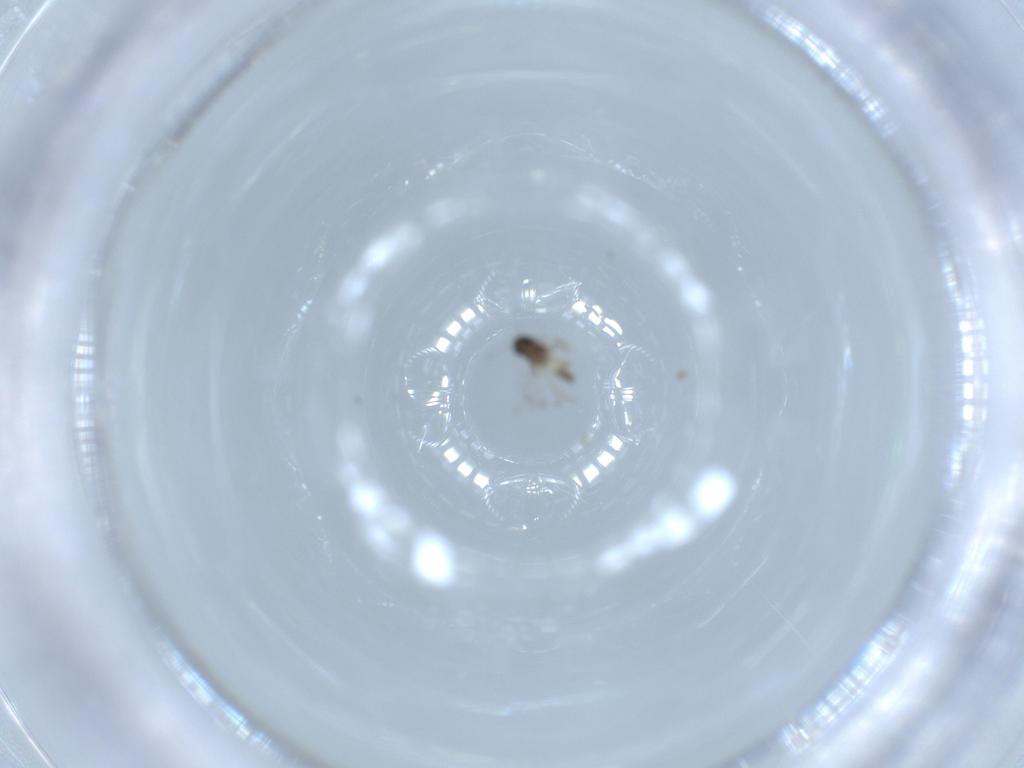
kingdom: Animalia
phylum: Arthropoda
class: Insecta
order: Diptera
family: Chironomidae
